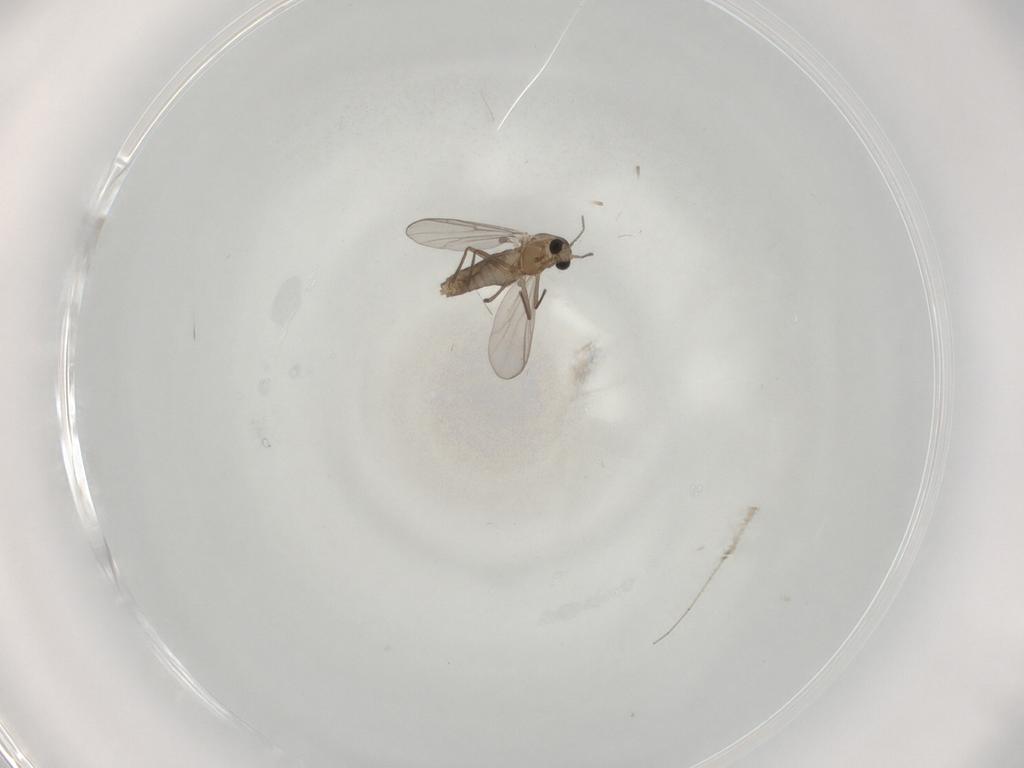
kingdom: Animalia
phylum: Arthropoda
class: Insecta
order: Diptera
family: Chironomidae
